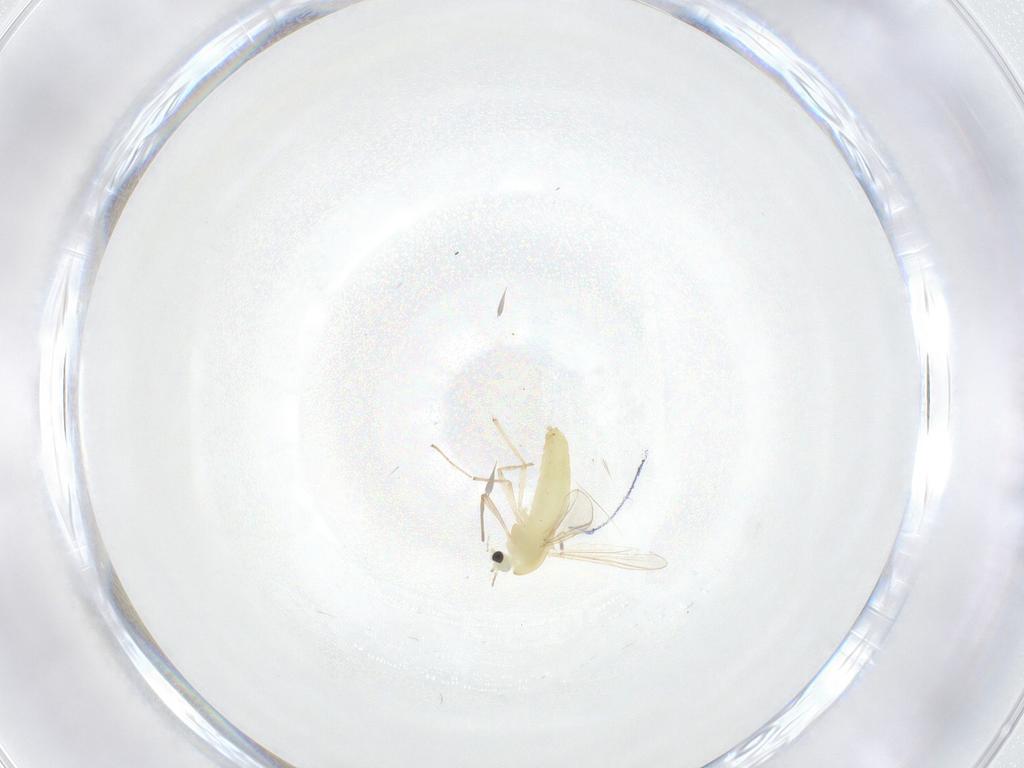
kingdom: Animalia
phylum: Arthropoda
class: Insecta
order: Diptera
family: Chironomidae
